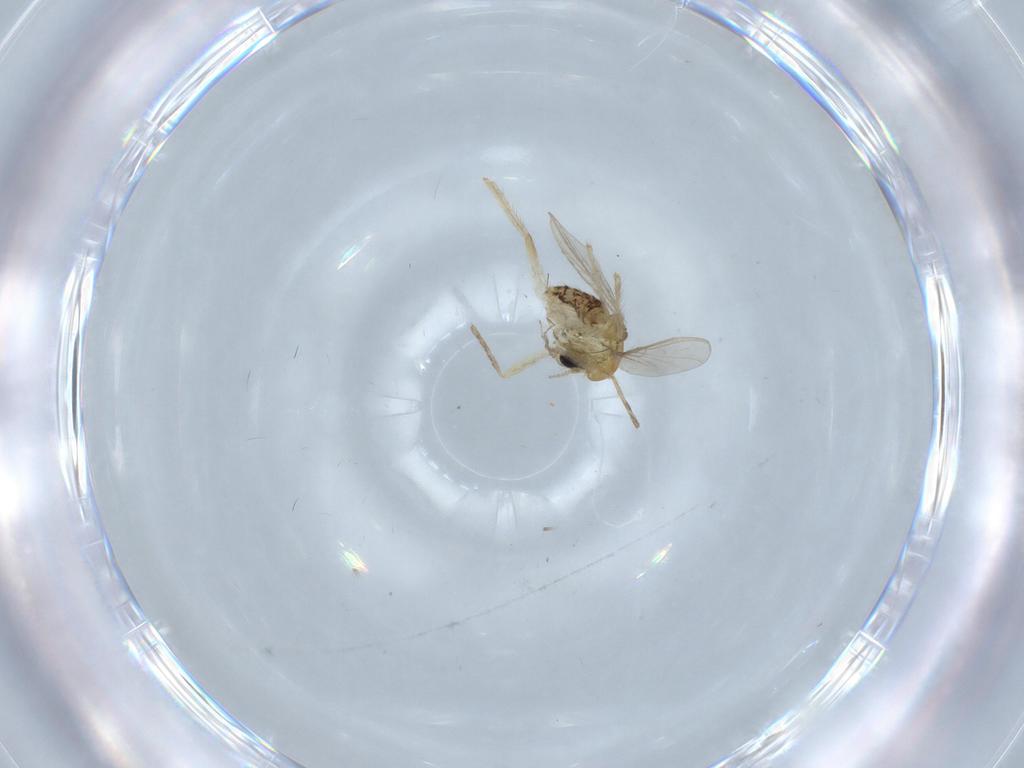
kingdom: Animalia
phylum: Arthropoda
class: Insecta
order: Diptera
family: Chironomidae
